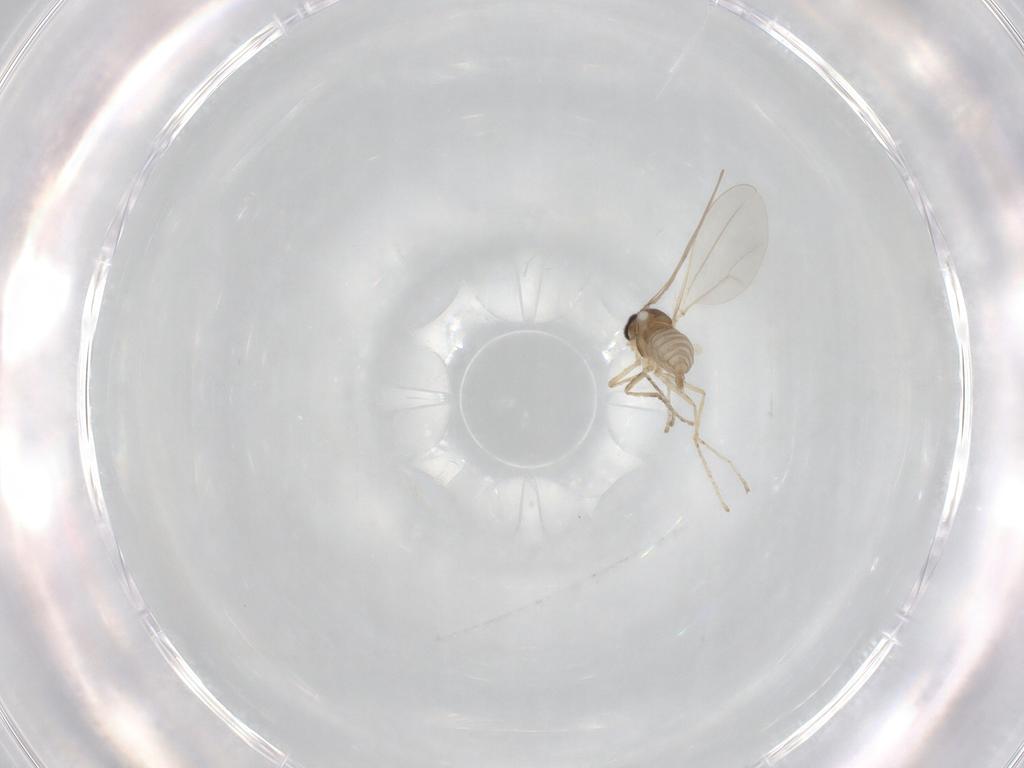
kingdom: Animalia
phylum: Arthropoda
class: Insecta
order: Diptera
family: Cecidomyiidae
